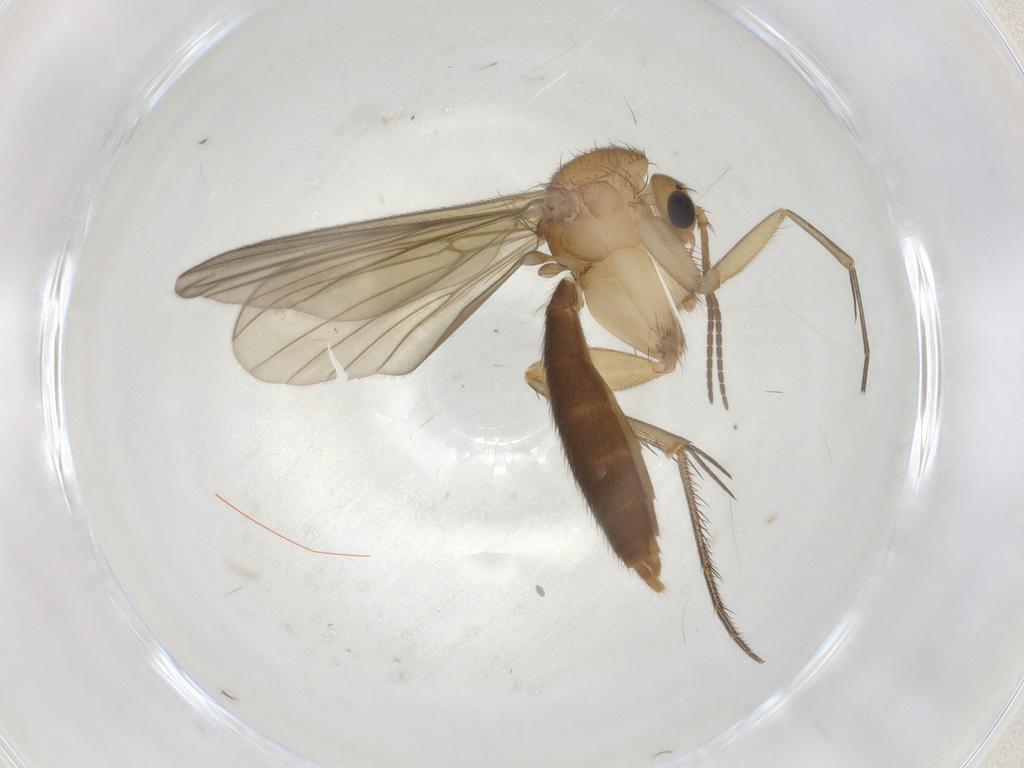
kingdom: Animalia
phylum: Arthropoda
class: Insecta
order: Diptera
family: Mycetophilidae
